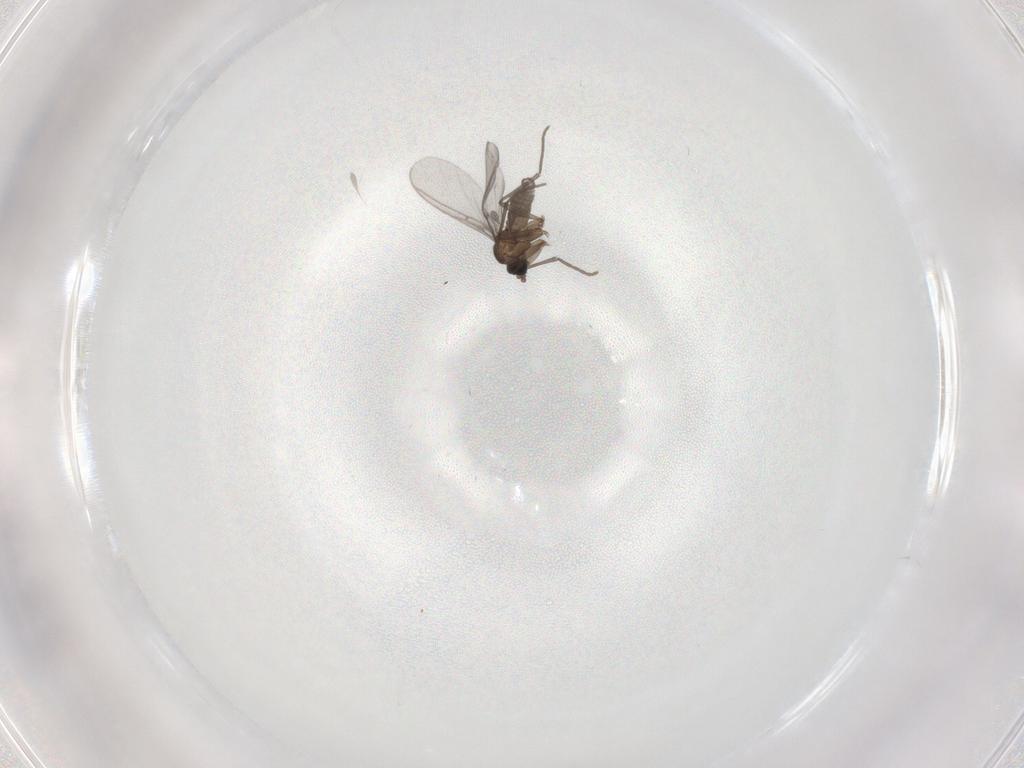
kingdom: Animalia
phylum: Arthropoda
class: Insecta
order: Diptera
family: Sciaridae
